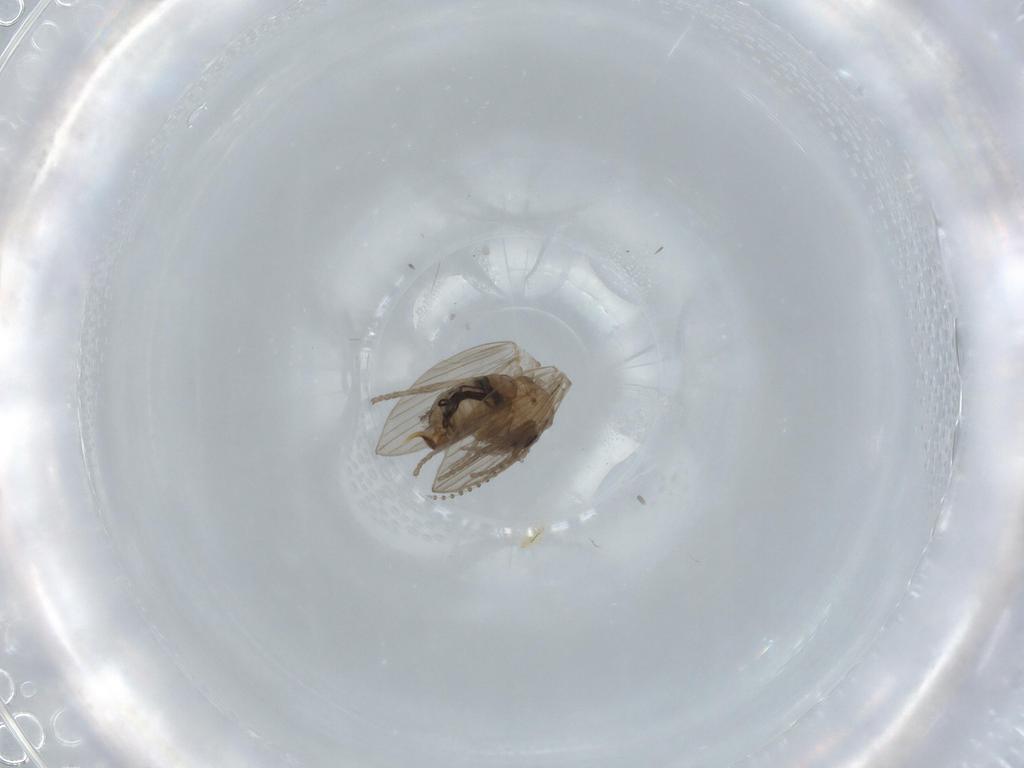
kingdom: Animalia
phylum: Arthropoda
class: Insecta
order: Diptera
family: Psychodidae
